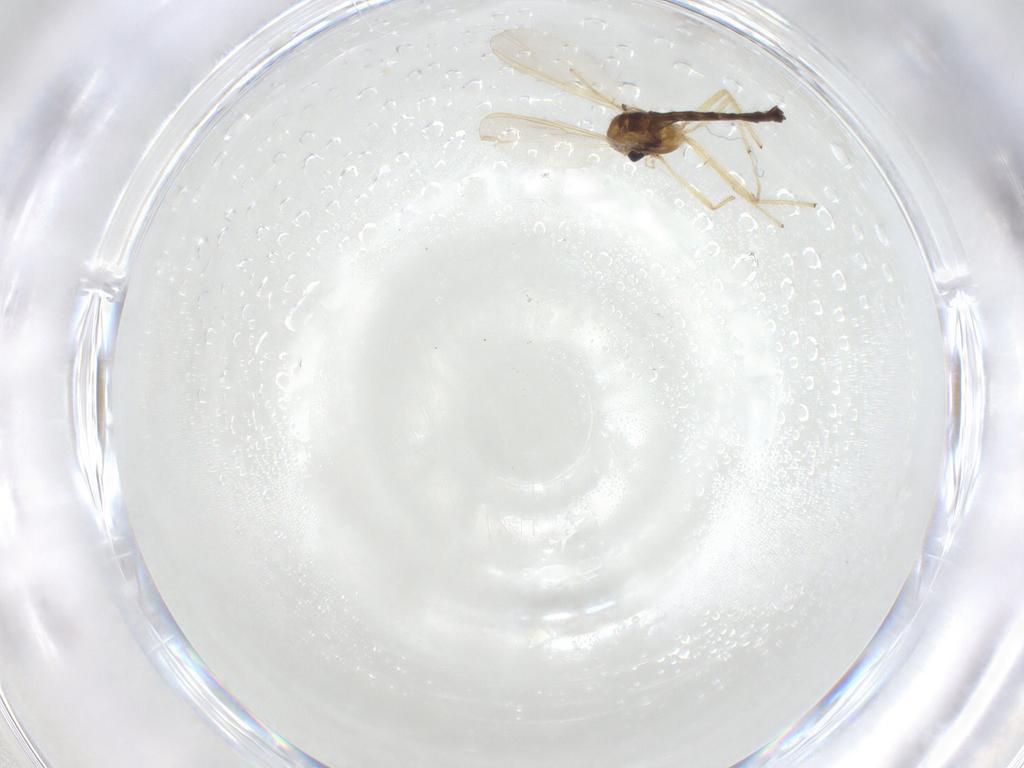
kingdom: Animalia
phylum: Arthropoda
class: Insecta
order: Diptera
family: Chironomidae
